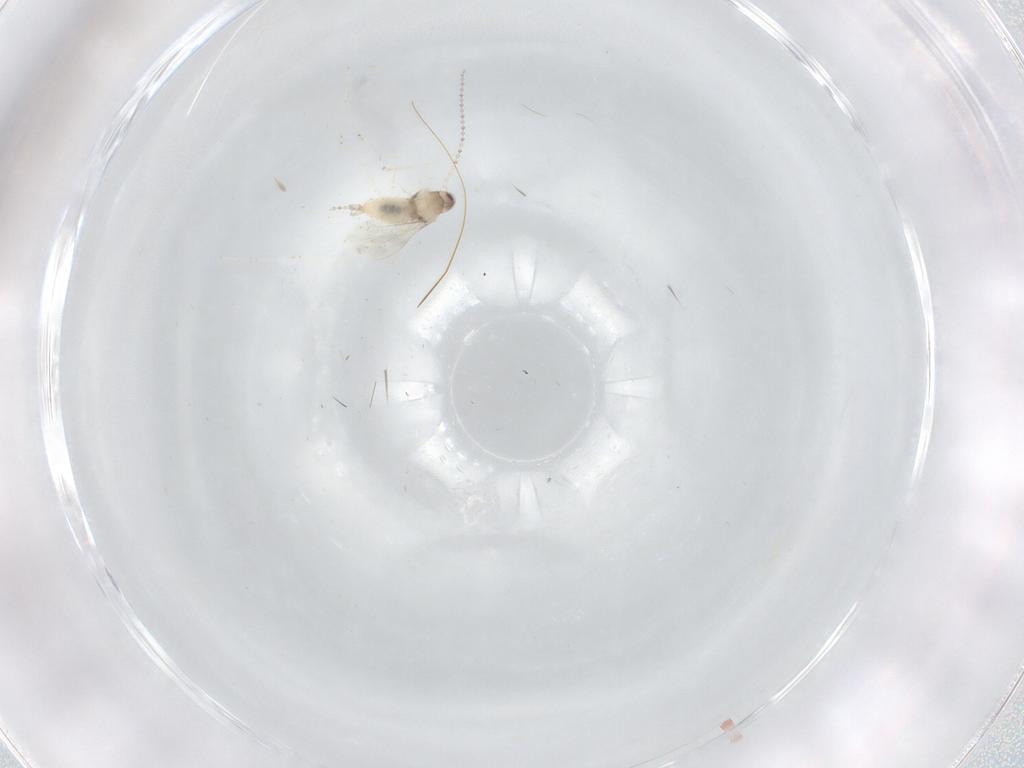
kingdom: Animalia
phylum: Arthropoda
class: Insecta
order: Diptera
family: Cecidomyiidae
